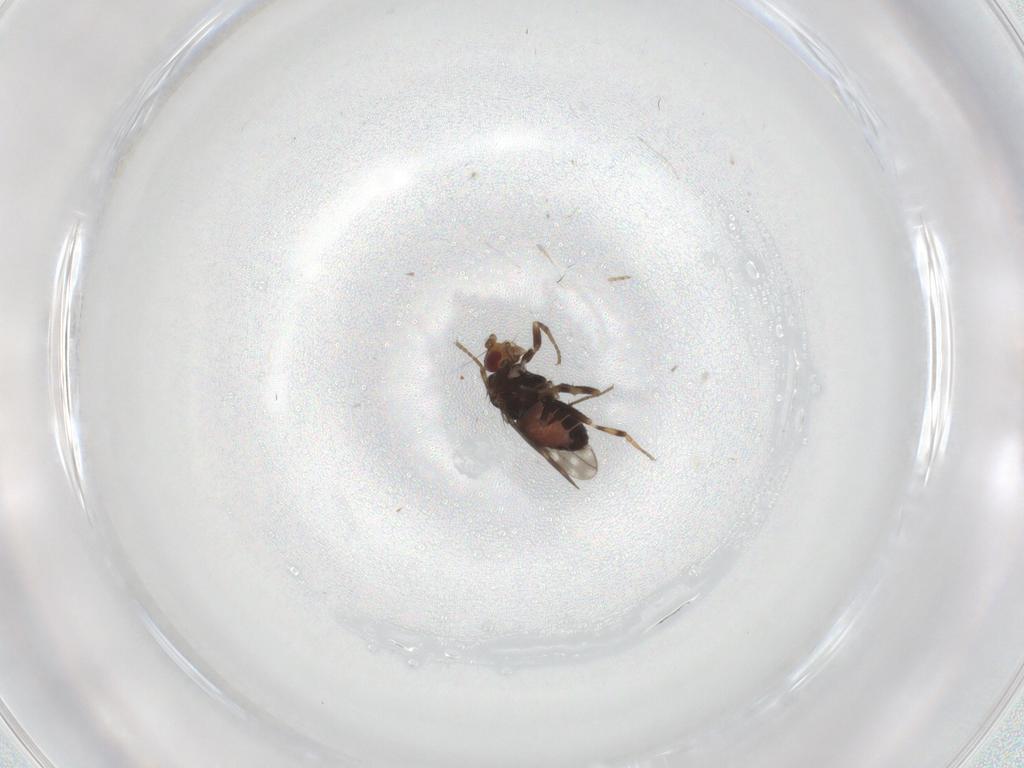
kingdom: Animalia
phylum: Arthropoda
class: Insecta
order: Diptera
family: Sphaeroceridae
